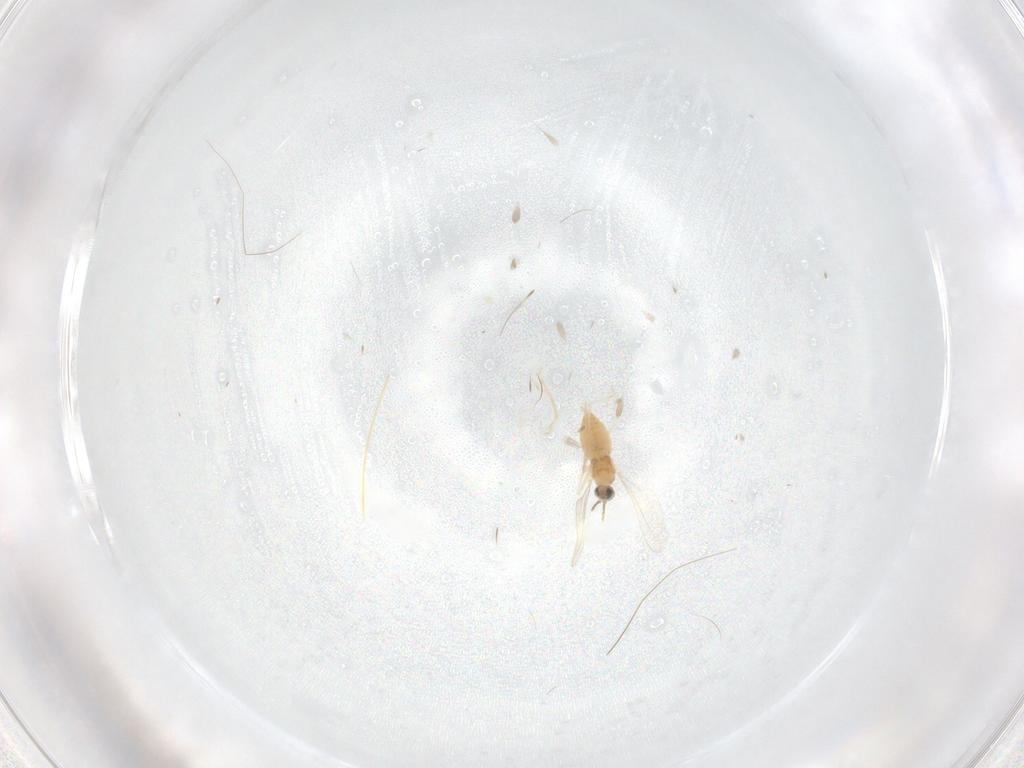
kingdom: Animalia
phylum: Arthropoda
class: Insecta
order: Diptera
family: Cecidomyiidae
